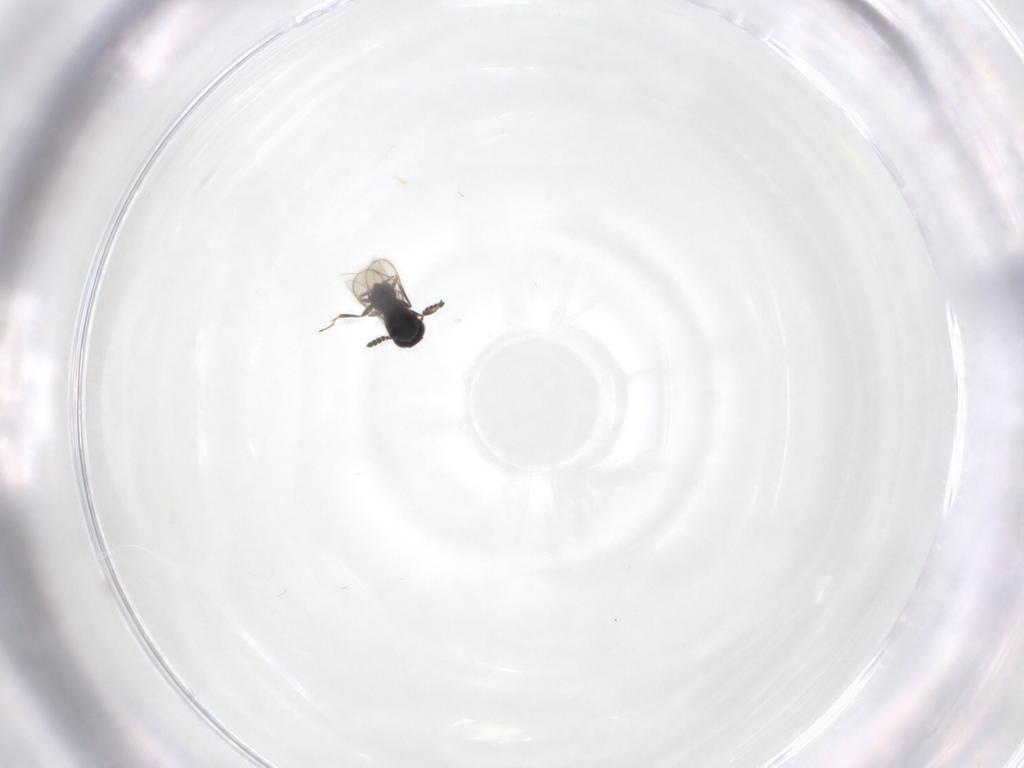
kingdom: Animalia
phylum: Arthropoda
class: Insecta
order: Hymenoptera
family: Scelionidae
